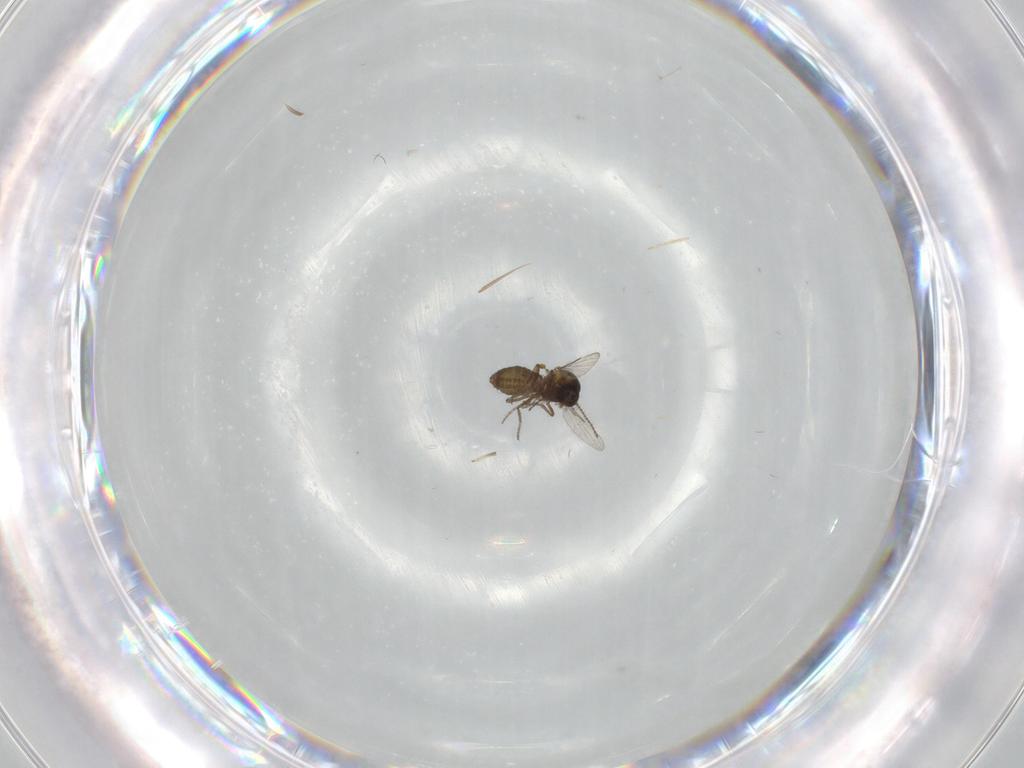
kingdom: Animalia
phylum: Arthropoda
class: Insecta
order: Diptera
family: Ceratopogonidae
